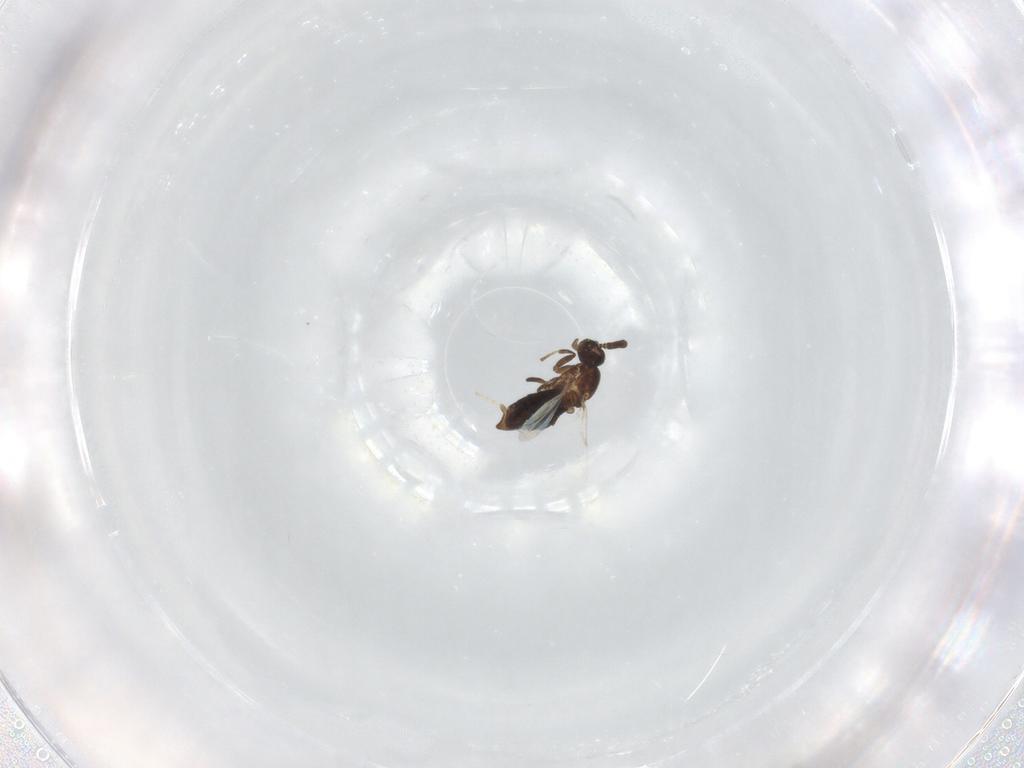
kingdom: Animalia
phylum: Arthropoda
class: Insecta
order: Diptera
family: Scatopsidae
